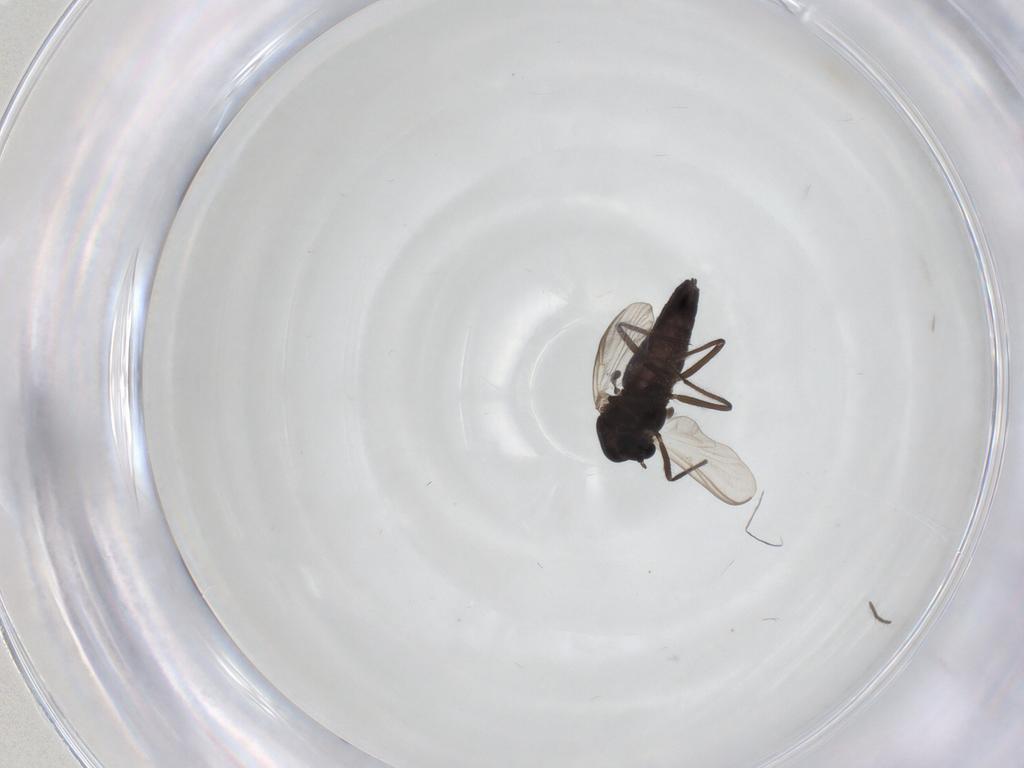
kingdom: Animalia
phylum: Arthropoda
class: Insecta
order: Diptera
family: Chironomidae
